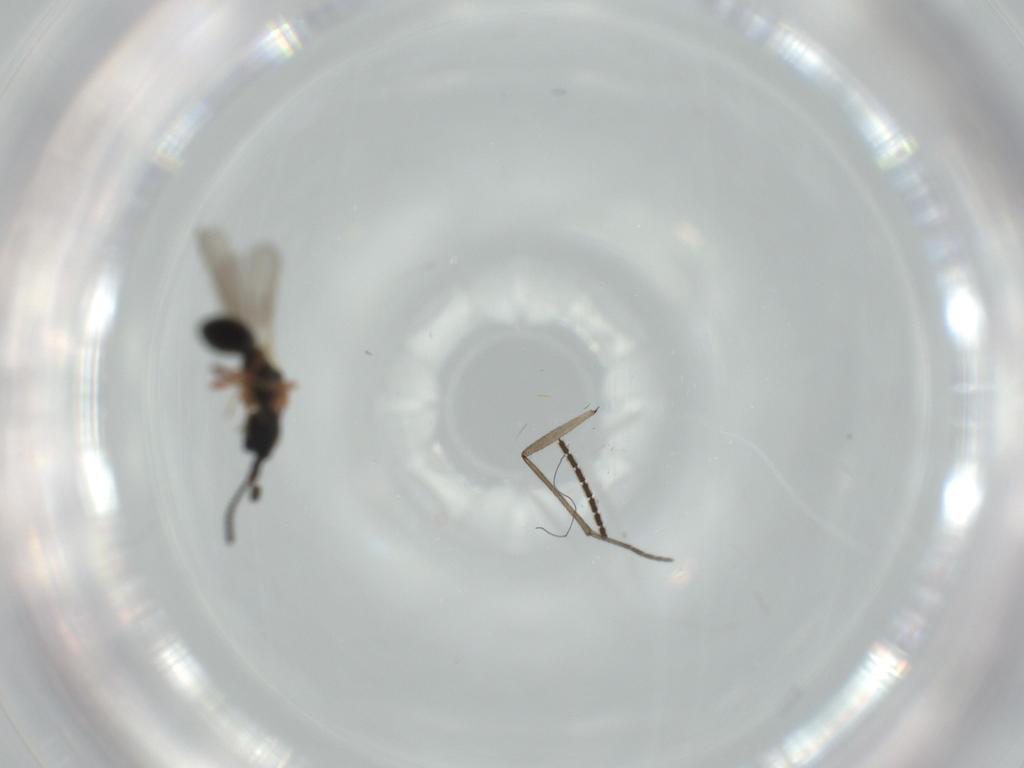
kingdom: Animalia
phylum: Arthropoda
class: Insecta
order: Hymenoptera
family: Diapriidae
